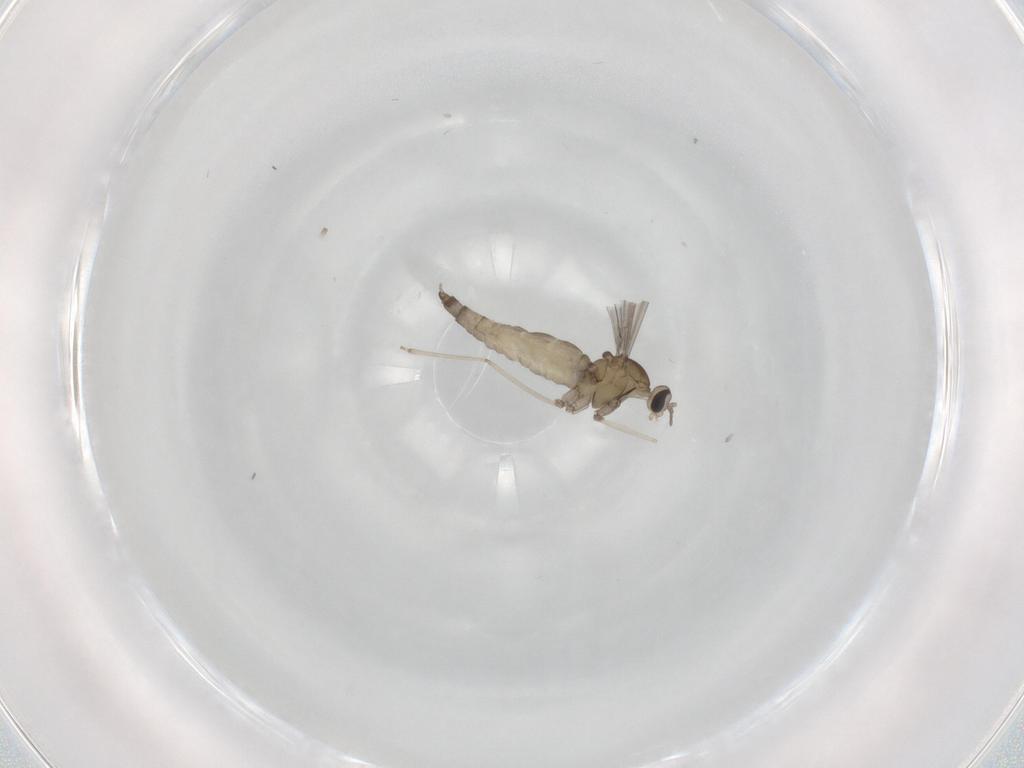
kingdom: Animalia
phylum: Arthropoda
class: Insecta
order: Diptera
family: Cecidomyiidae
